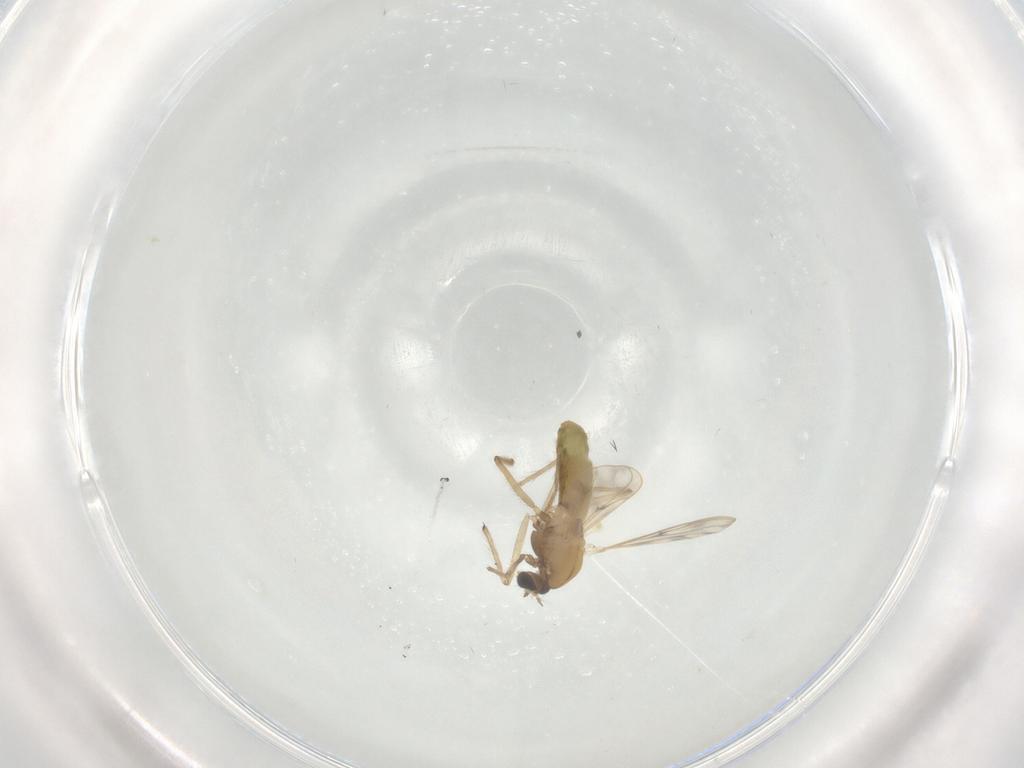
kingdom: Animalia
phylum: Arthropoda
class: Insecta
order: Diptera
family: Chironomidae
